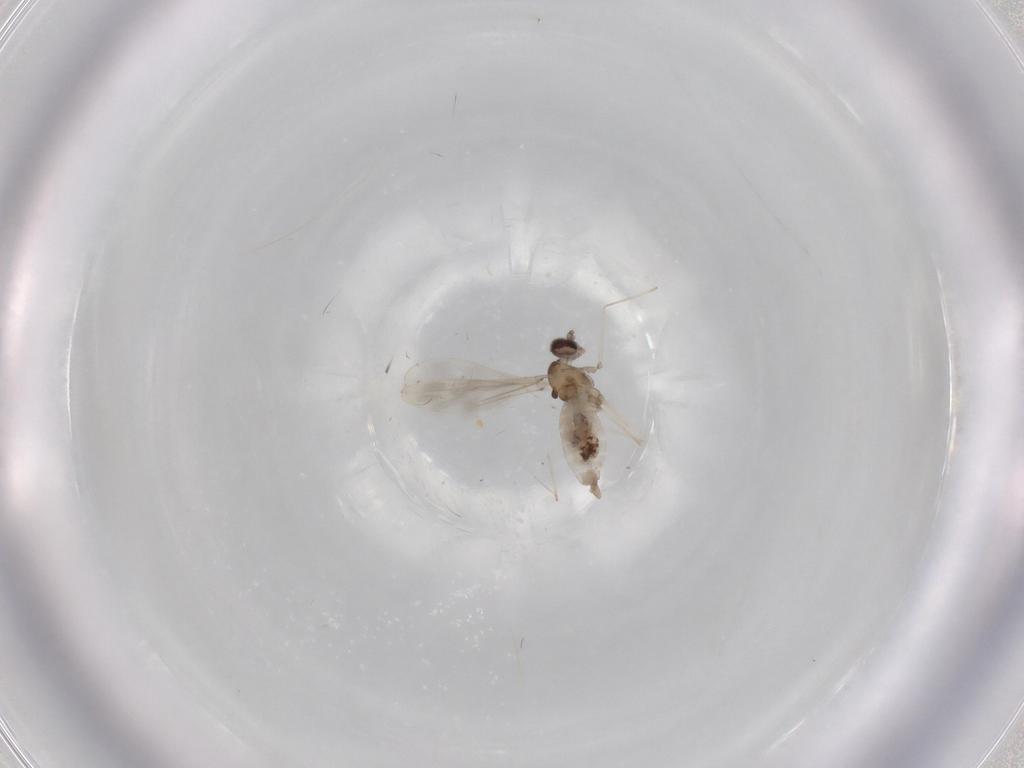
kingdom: Animalia
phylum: Arthropoda
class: Insecta
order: Diptera
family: Cecidomyiidae
